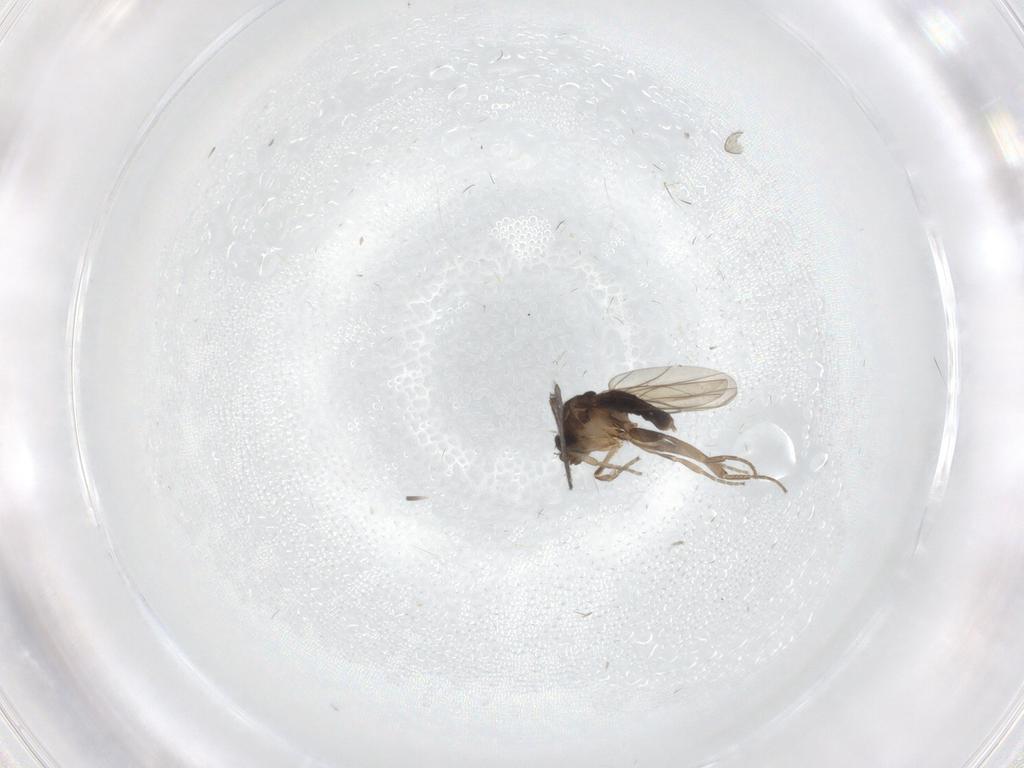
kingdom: Animalia
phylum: Arthropoda
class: Insecta
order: Diptera
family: Sciaridae
